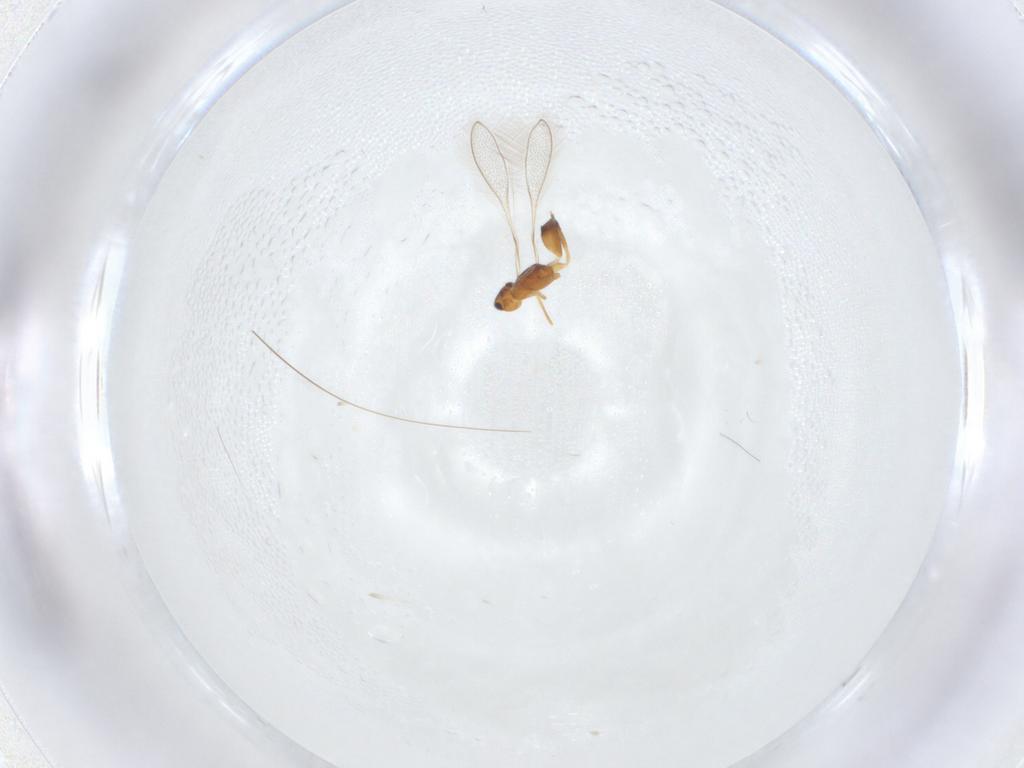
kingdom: Animalia
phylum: Arthropoda
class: Insecta
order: Hymenoptera
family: Mymaridae
